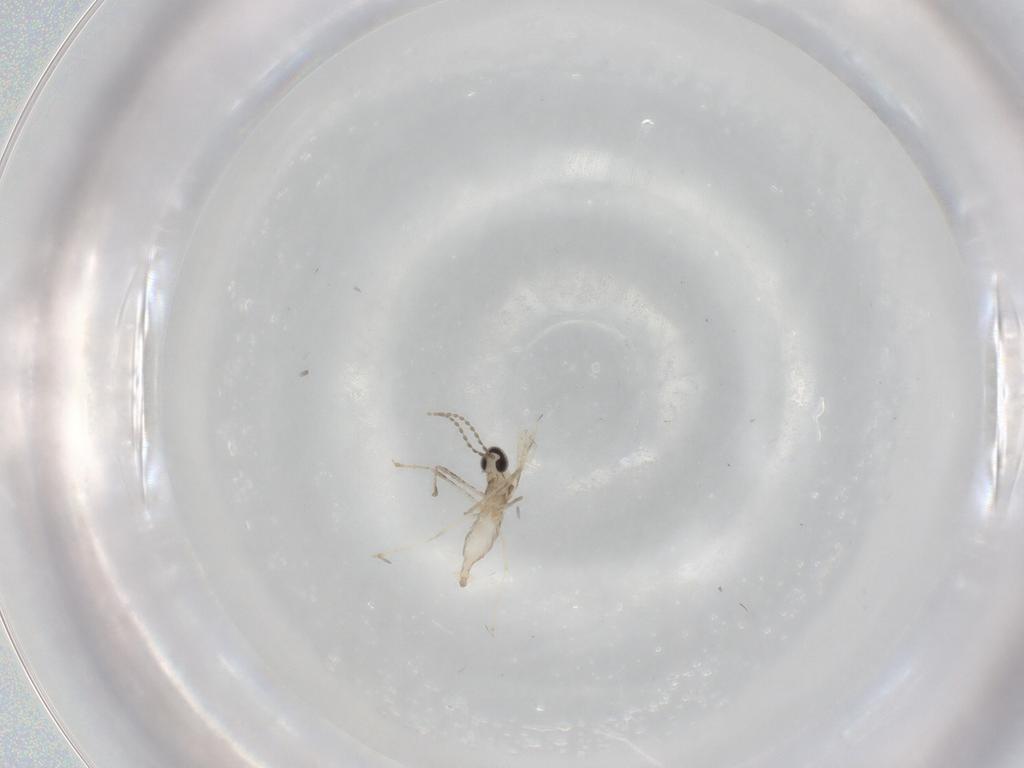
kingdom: Animalia
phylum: Arthropoda
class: Insecta
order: Diptera
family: Cecidomyiidae
